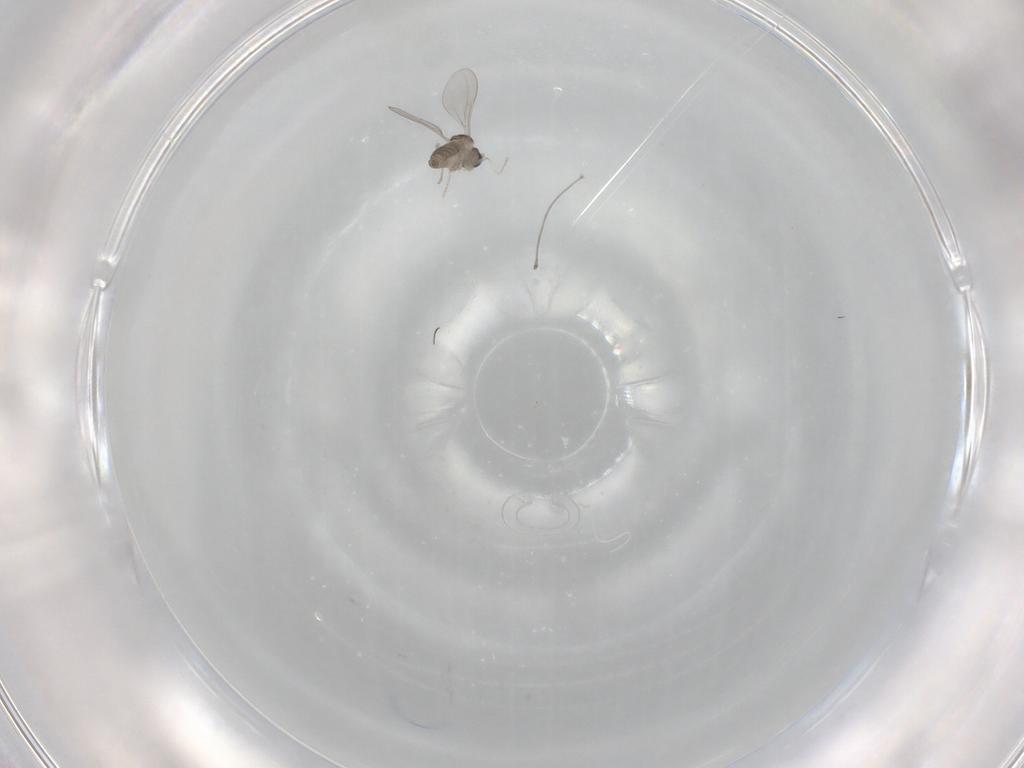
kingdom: Animalia
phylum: Arthropoda
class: Insecta
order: Diptera
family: Cecidomyiidae
